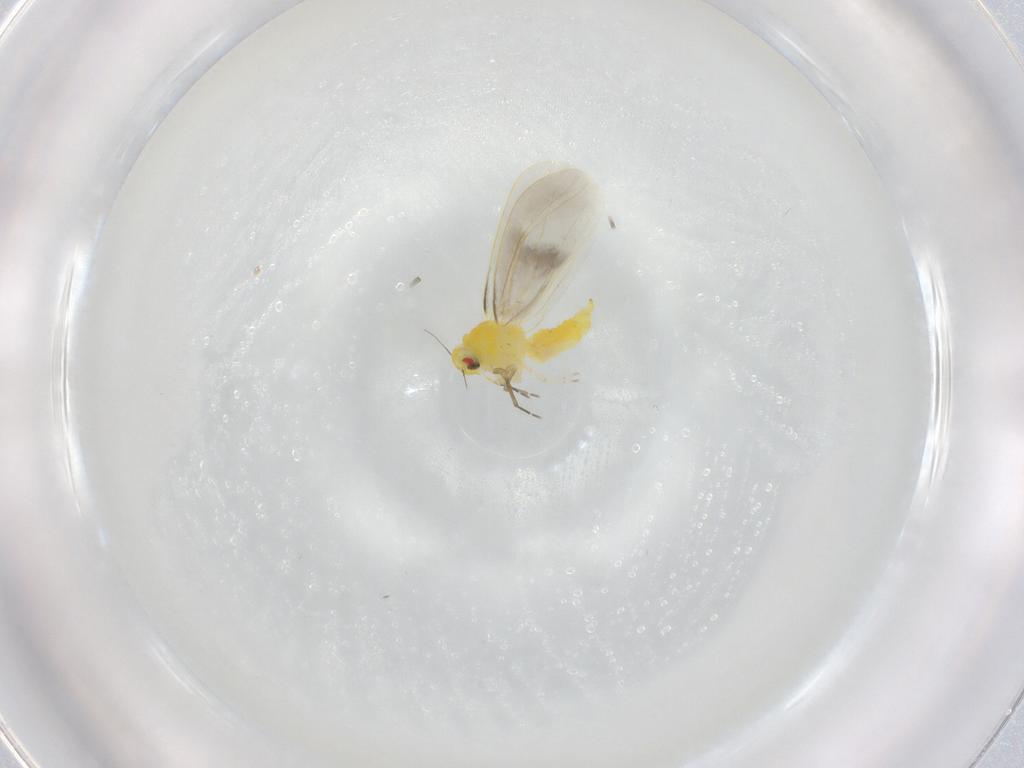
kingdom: Animalia
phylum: Arthropoda
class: Insecta
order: Hemiptera
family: Aleyrodidae
